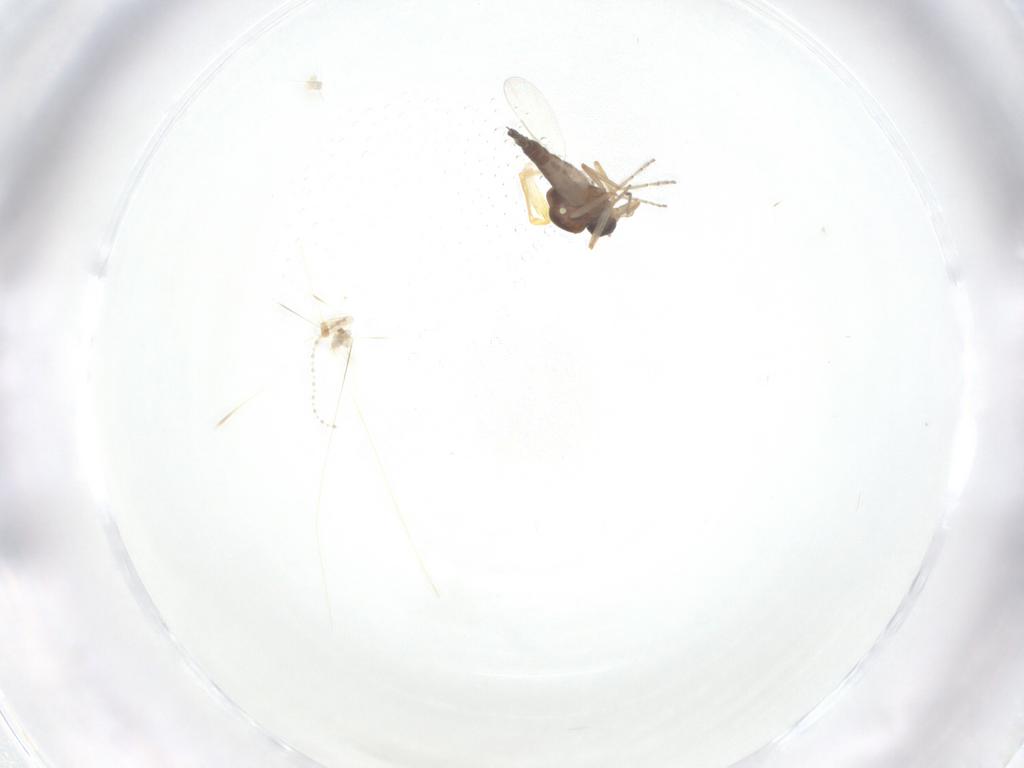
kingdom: Animalia
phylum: Arthropoda
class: Insecta
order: Diptera
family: Ceratopogonidae
